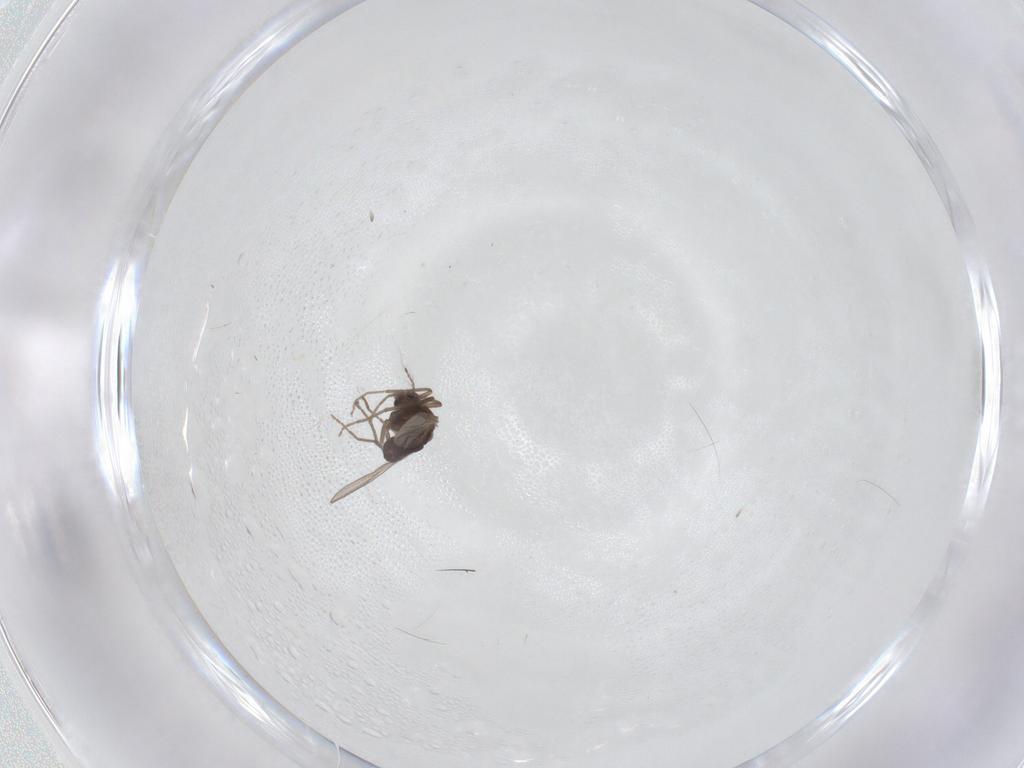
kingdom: Animalia
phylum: Arthropoda
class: Insecta
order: Diptera
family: Chironomidae
